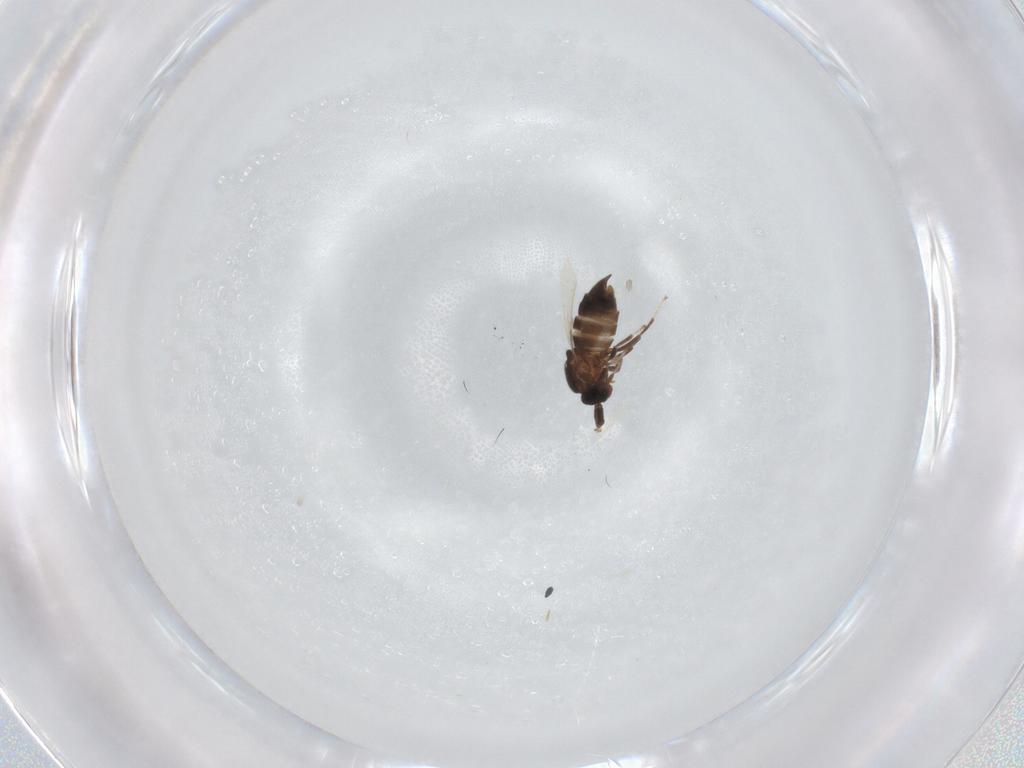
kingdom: Animalia
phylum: Arthropoda
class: Insecta
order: Diptera
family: Scatopsidae
